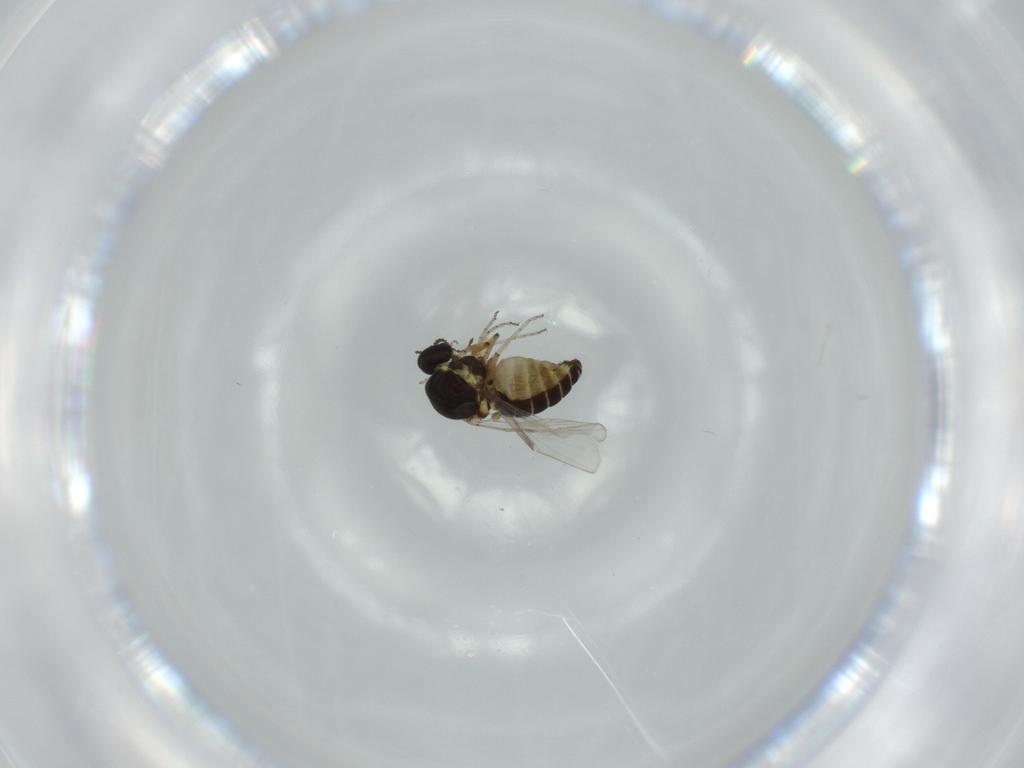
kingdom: Animalia
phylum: Arthropoda
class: Insecta
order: Diptera
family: Ceratopogonidae
